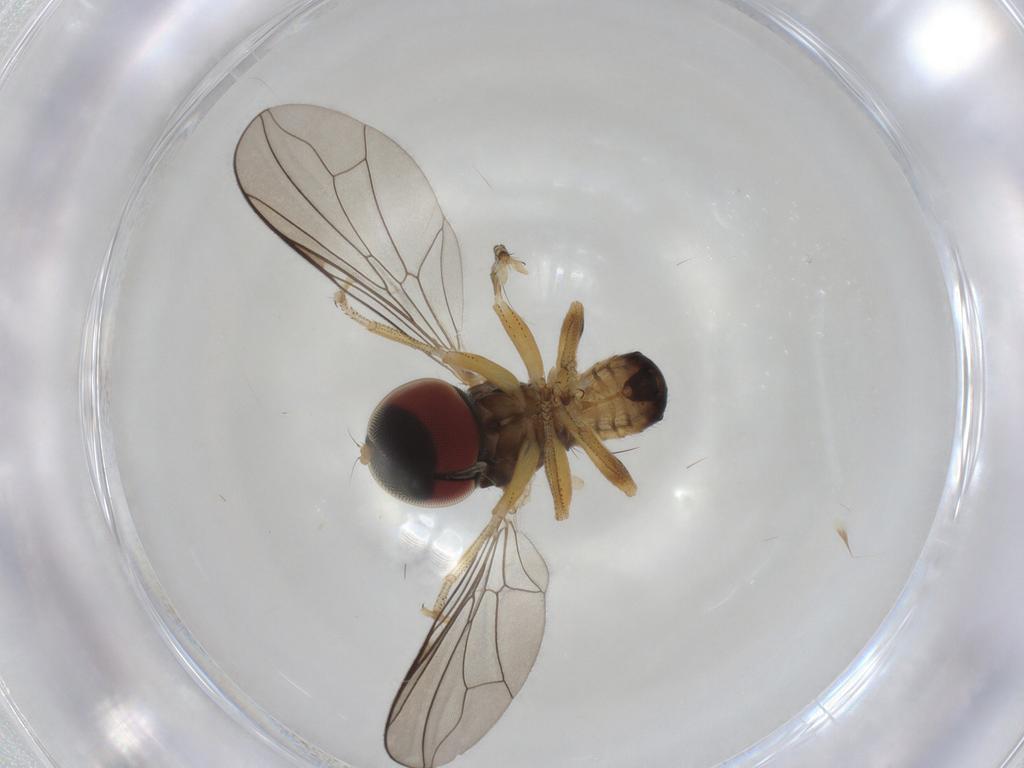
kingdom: Animalia
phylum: Arthropoda
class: Insecta
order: Diptera
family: Pipunculidae
